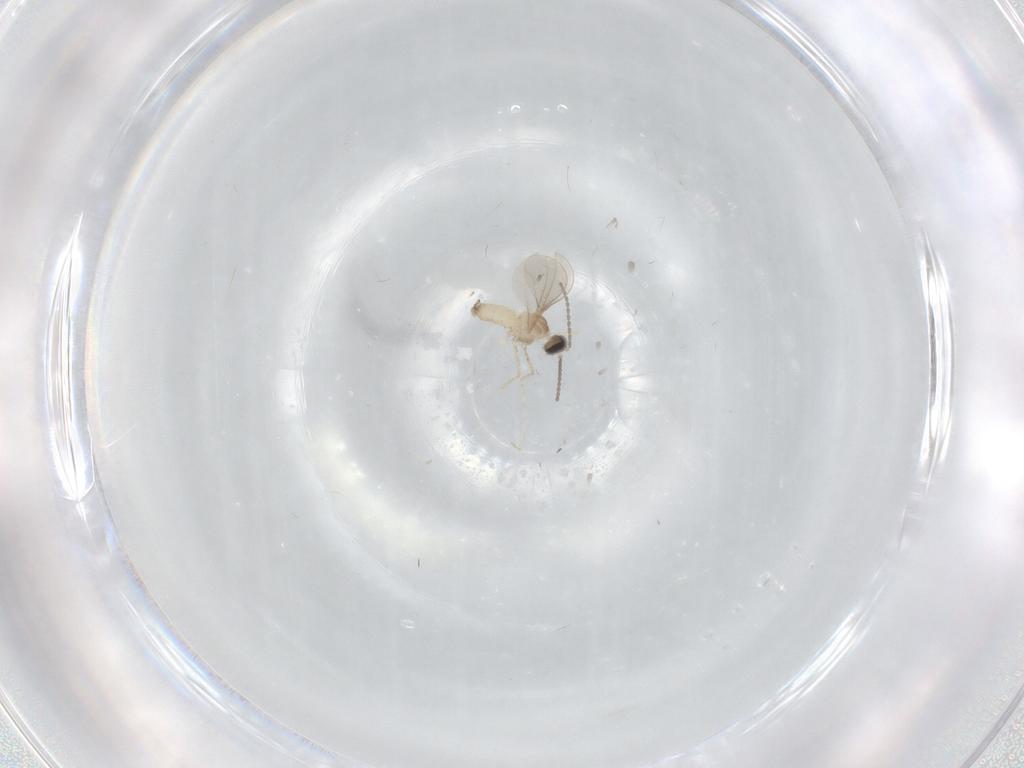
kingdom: Animalia
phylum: Arthropoda
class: Insecta
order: Diptera
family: Cecidomyiidae
